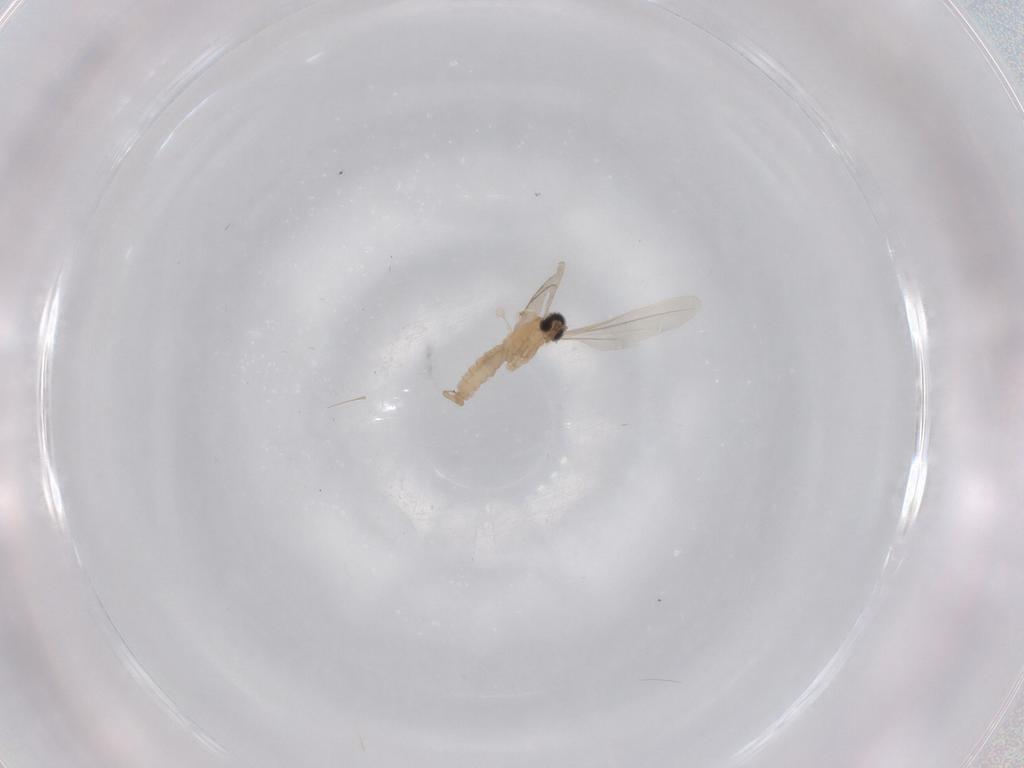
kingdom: Animalia
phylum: Arthropoda
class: Insecta
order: Diptera
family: Cecidomyiidae
